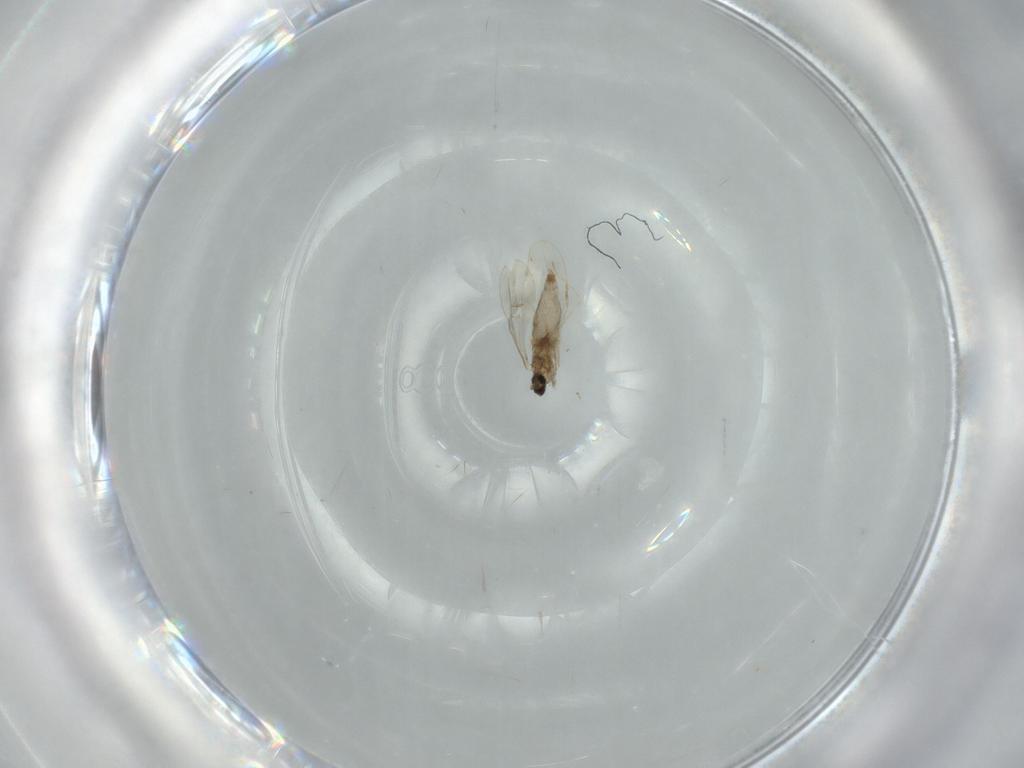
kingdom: Animalia
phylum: Arthropoda
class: Insecta
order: Diptera
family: Cecidomyiidae
